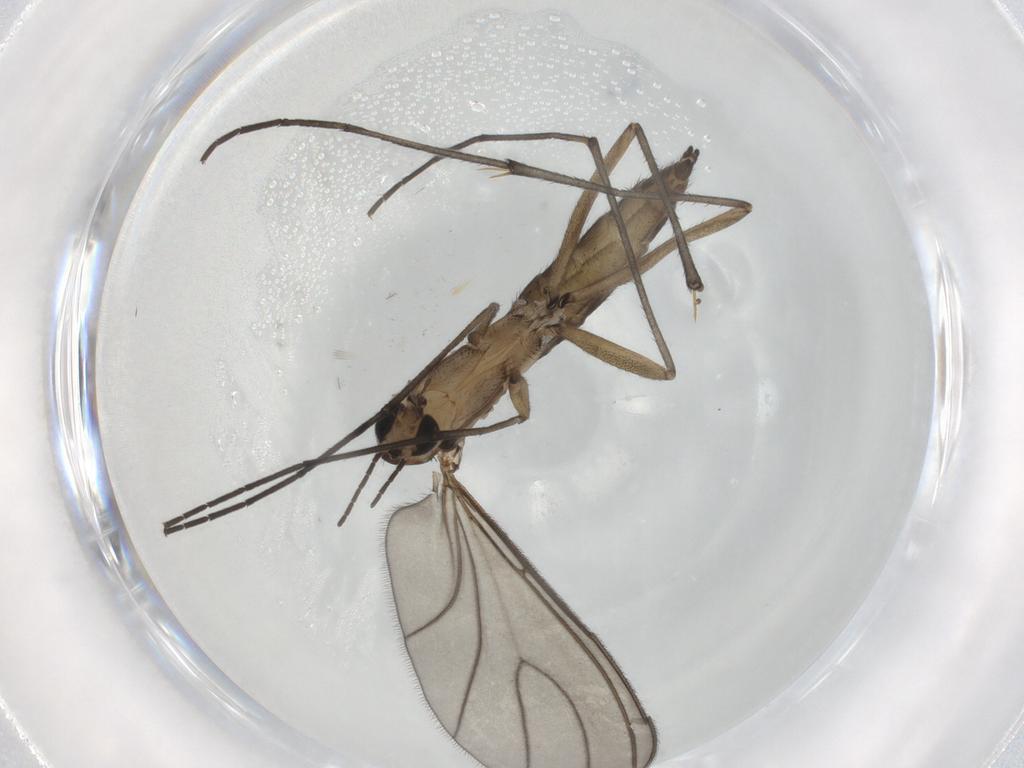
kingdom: Animalia
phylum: Arthropoda
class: Insecta
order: Diptera
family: Sciaridae
